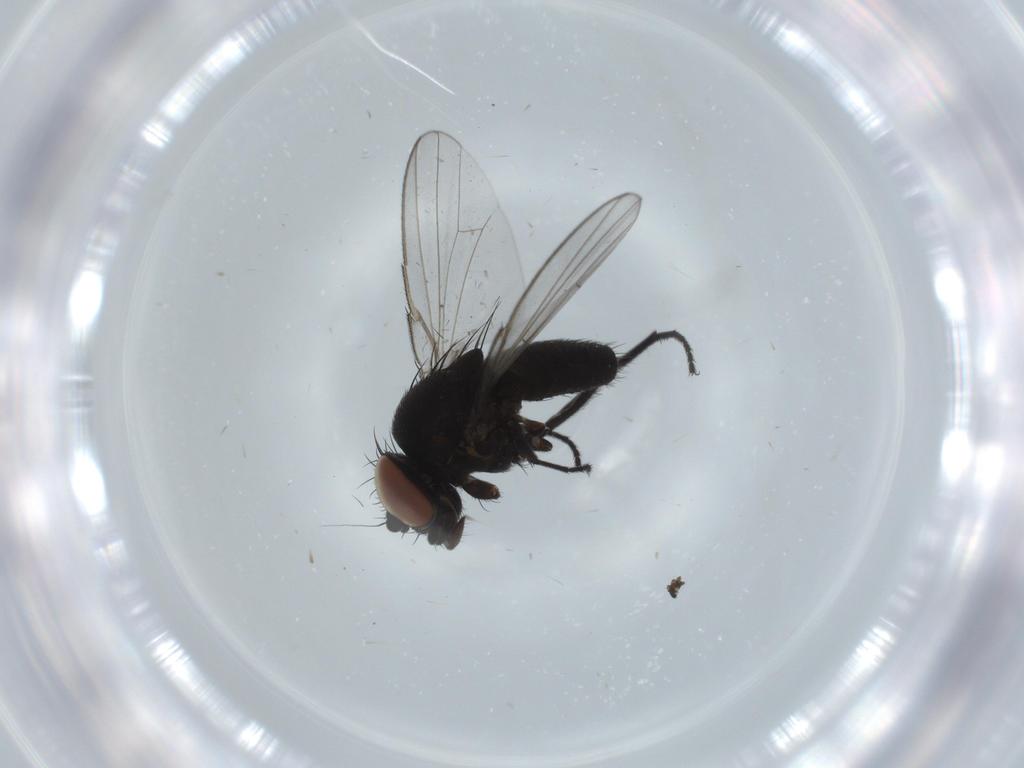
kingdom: Animalia
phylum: Arthropoda
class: Insecta
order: Diptera
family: Milichiidae
